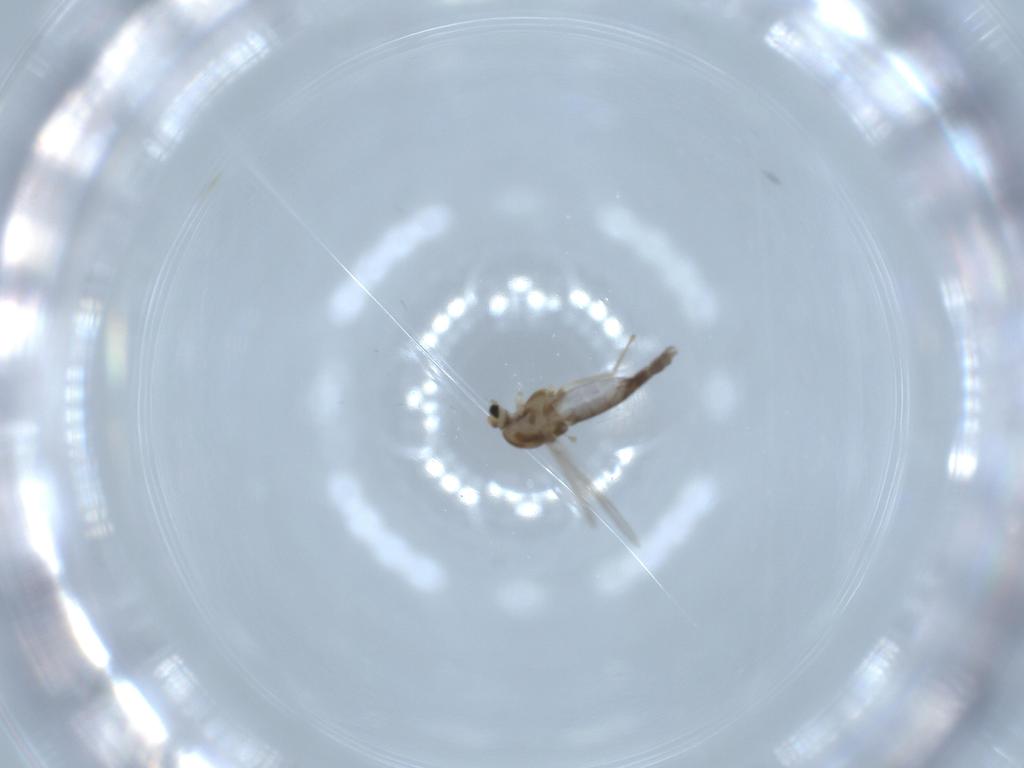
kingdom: Animalia
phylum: Arthropoda
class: Insecta
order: Diptera
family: Chironomidae
